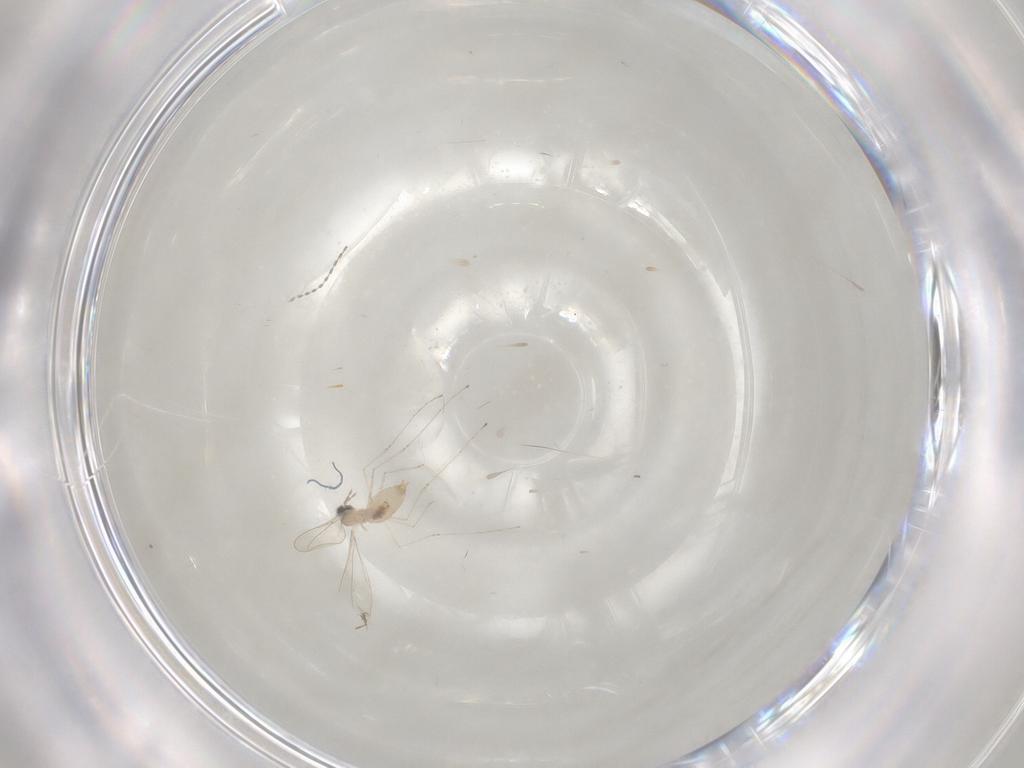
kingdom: Animalia
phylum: Arthropoda
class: Insecta
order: Diptera
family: Cecidomyiidae
